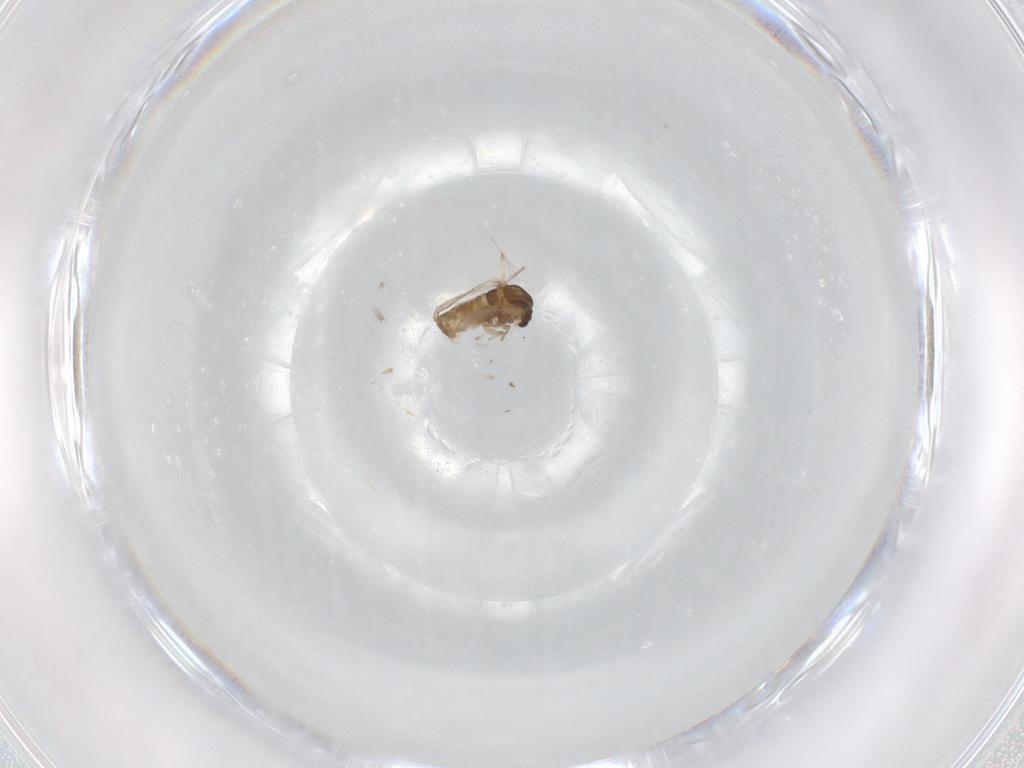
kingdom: Animalia
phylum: Arthropoda
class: Insecta
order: Diptera
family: Chironomidae
